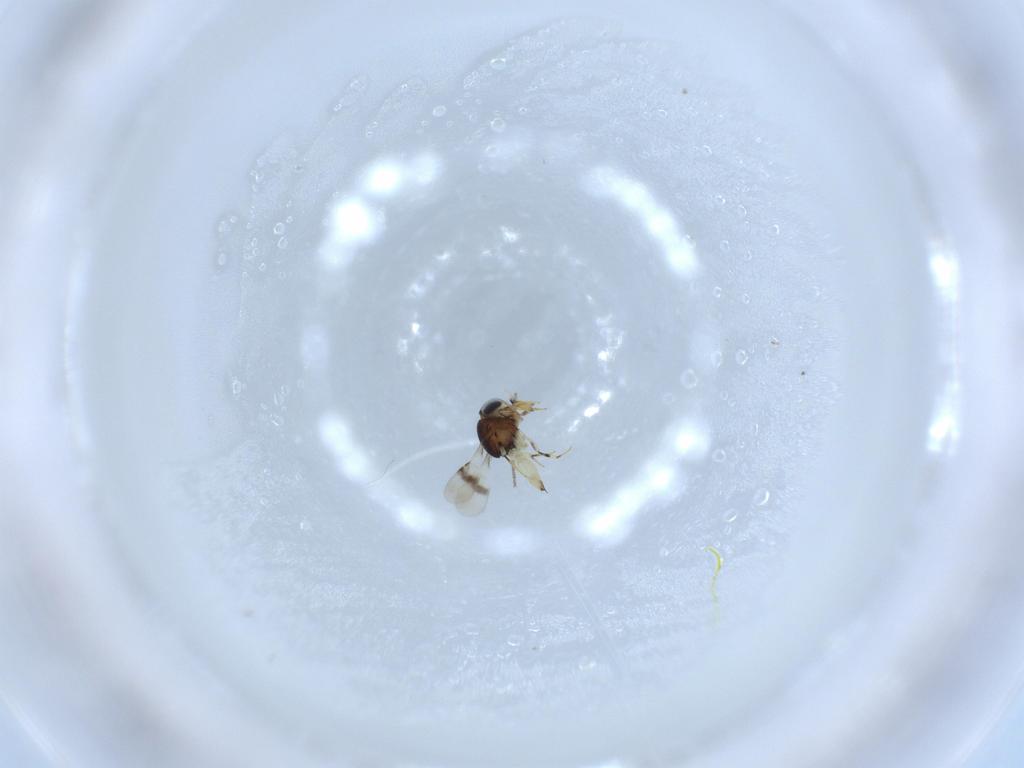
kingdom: Animalia
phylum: Arthropoda
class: Insecta
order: Hymenoptera
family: Scelionidae
